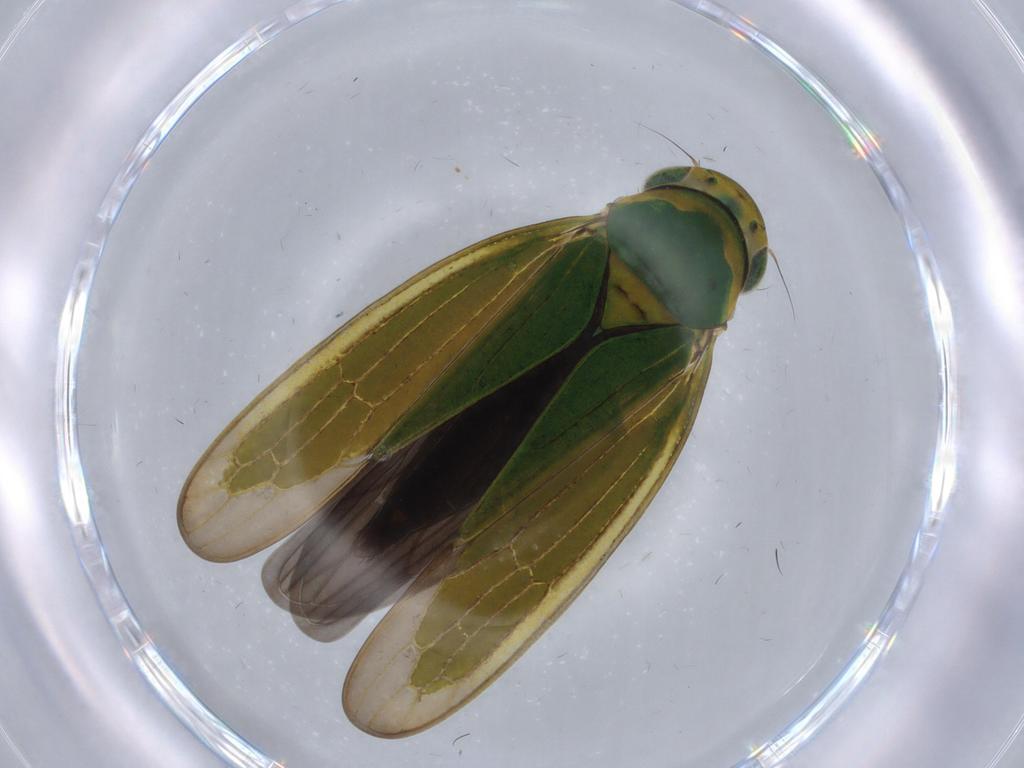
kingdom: Animalia
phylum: Arthropoda
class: Insecta
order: Hemiptera
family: Cicadellidae
